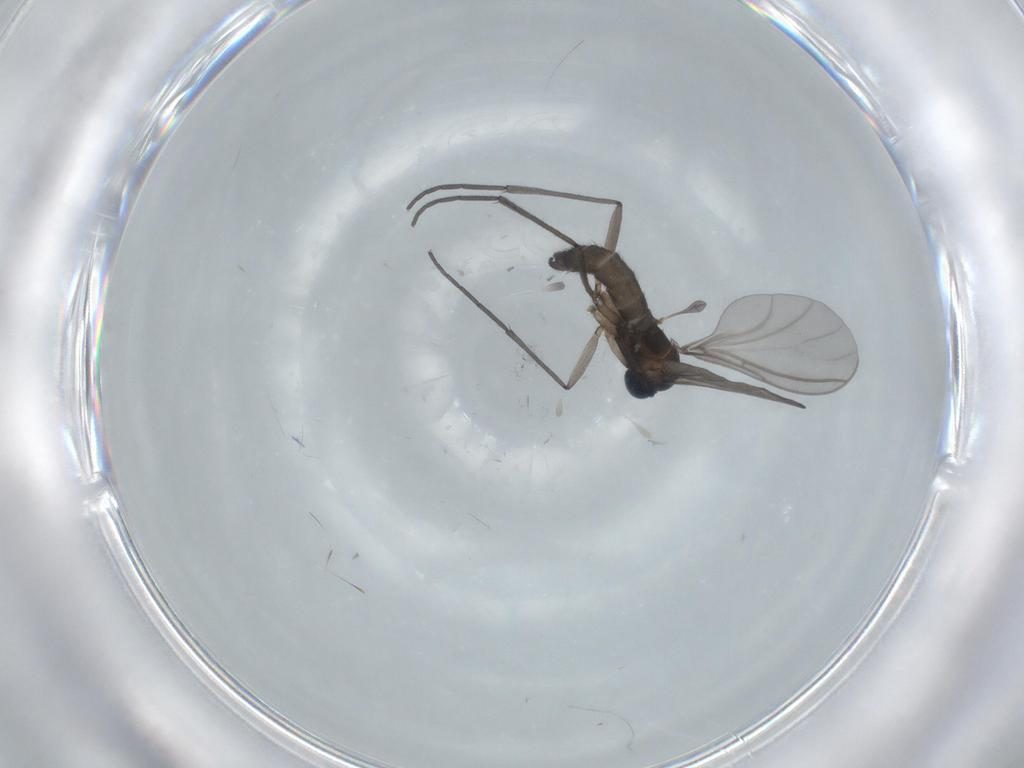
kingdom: Animalia
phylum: Arthropoda
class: Insecta
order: Diptera
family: Sciaridae
